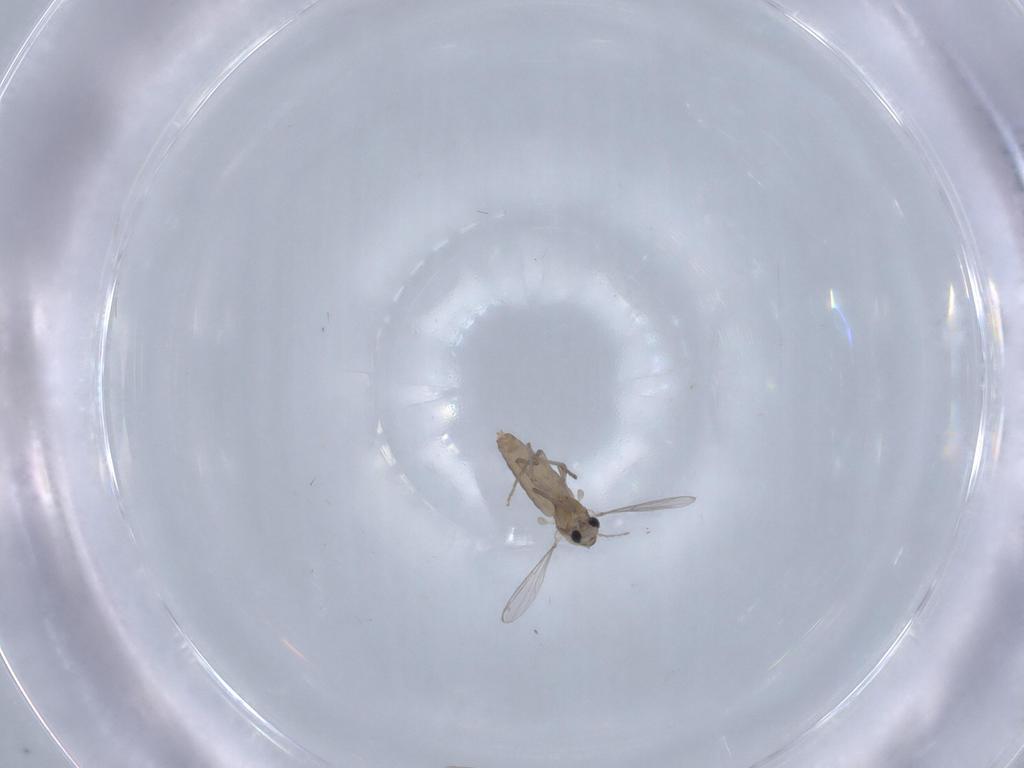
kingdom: Animalia
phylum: Arthropoda
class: Insecta
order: Diptera
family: Chironomidae
